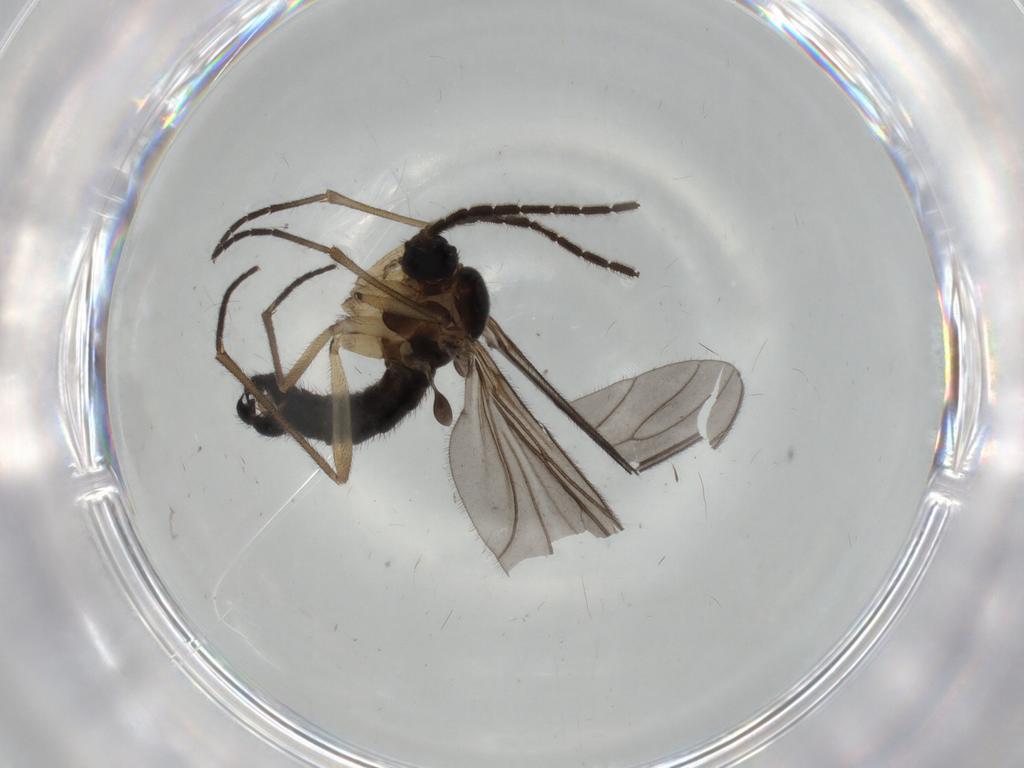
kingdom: Animalia
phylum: Arthropoda
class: Insecta
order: Diptera
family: Sciaridae
